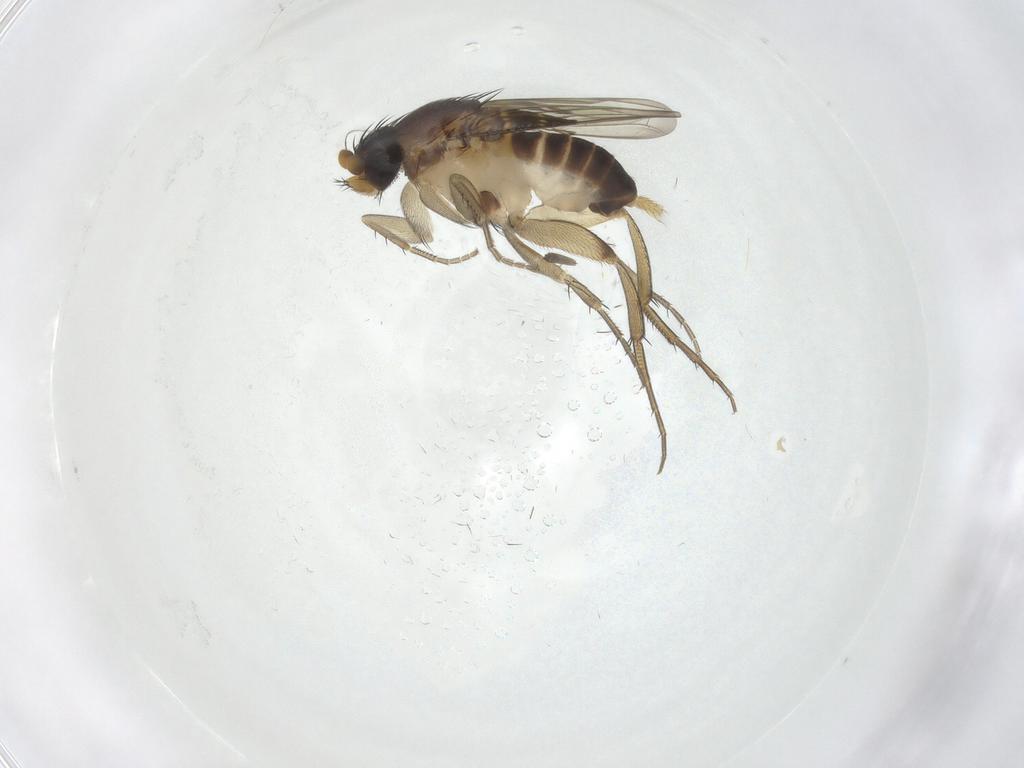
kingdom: Animalia
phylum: Arthropoda
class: Insecta
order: Diptera
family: Phoridae
